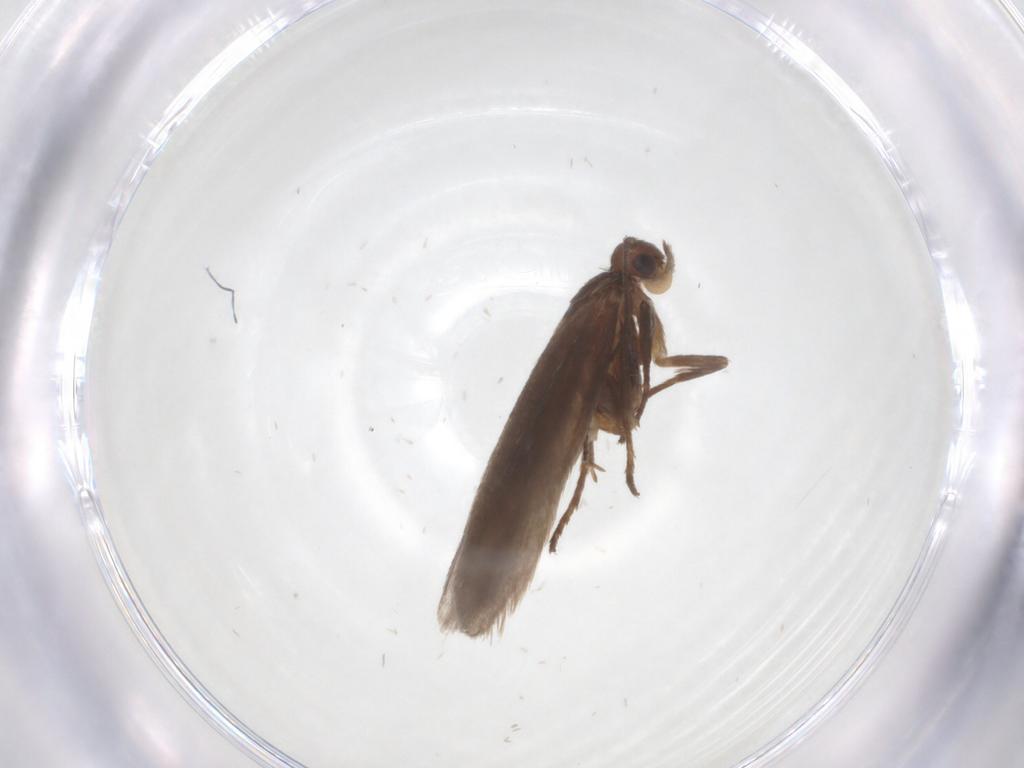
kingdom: Animalia
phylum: Arthropoda
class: Insecta
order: Lepidoptera
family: Limacodidae
